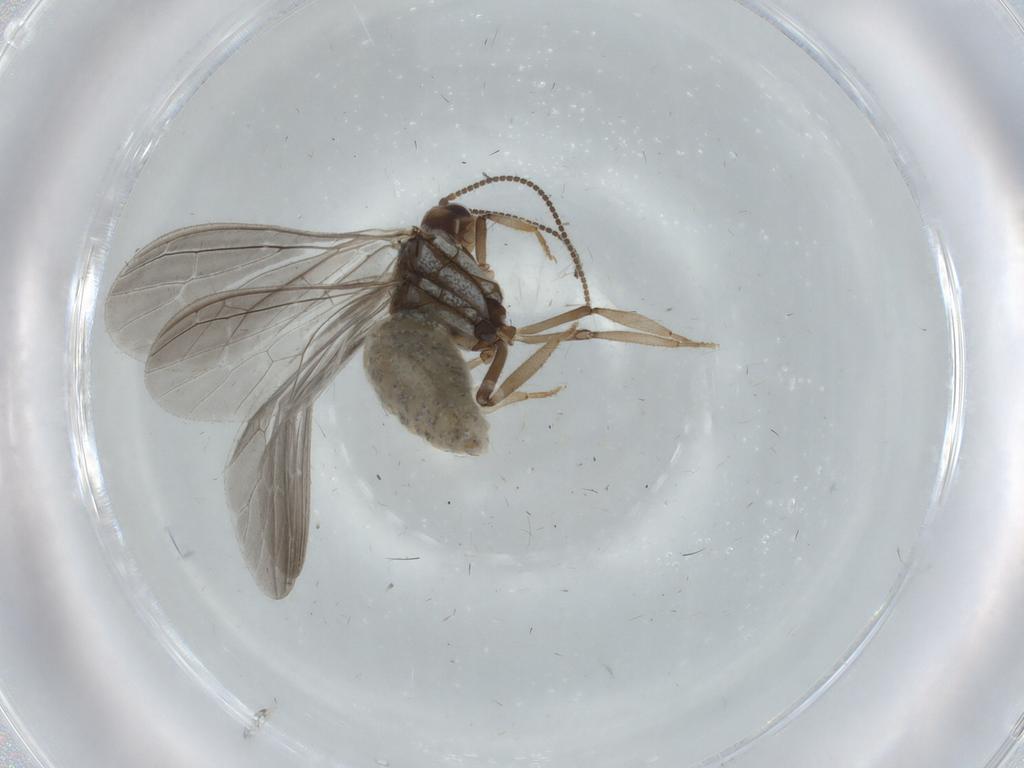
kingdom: Animalia
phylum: Arthropoda
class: Insecta
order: Neuroptera
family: Coniopterygidae
